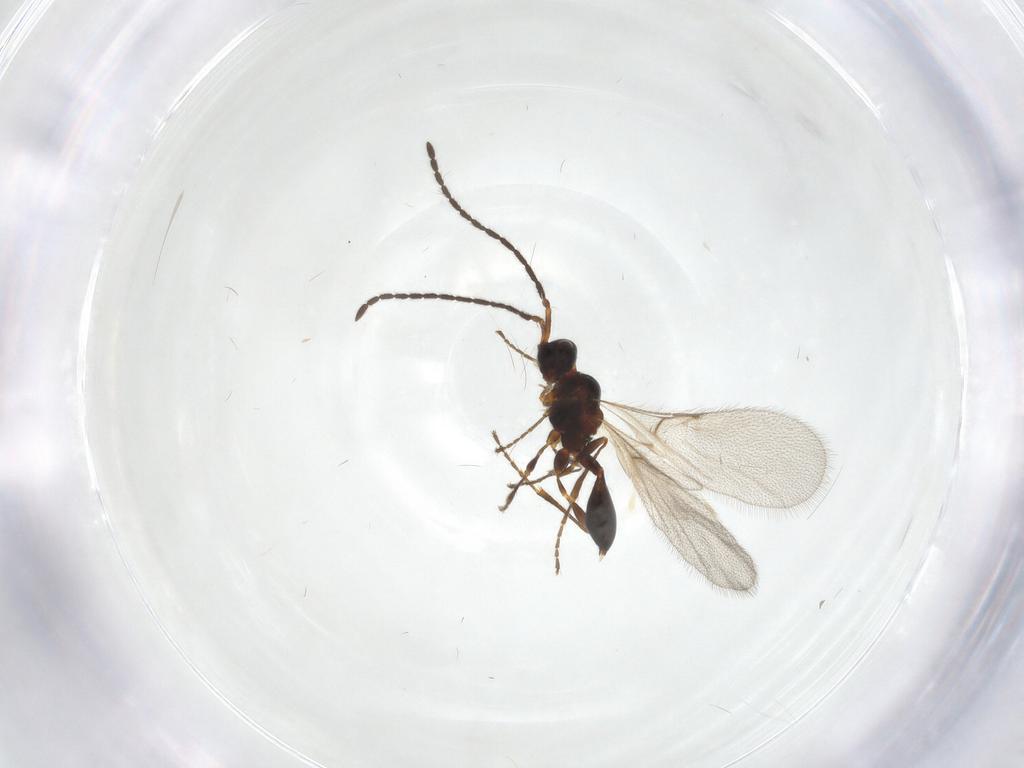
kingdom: Animalia
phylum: Arthropoda
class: Insecta
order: Hymenoptera
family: Diapriidae
